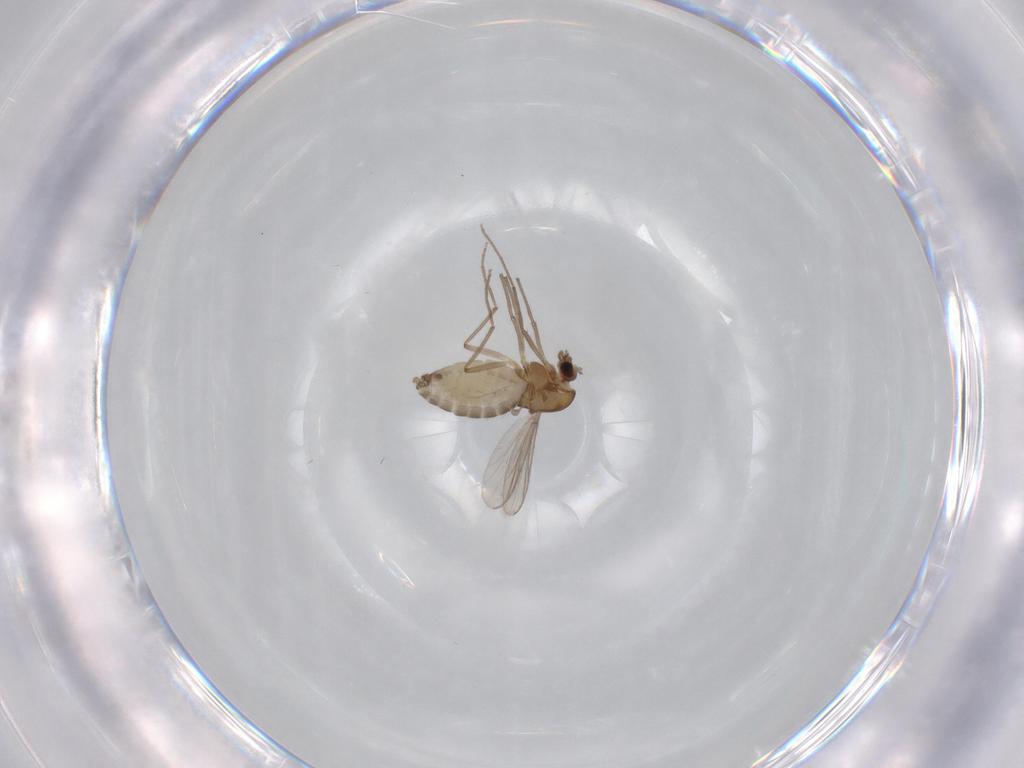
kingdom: Animalia
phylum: Arthropoda
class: Insecta
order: Diptera
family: Chironomidae
